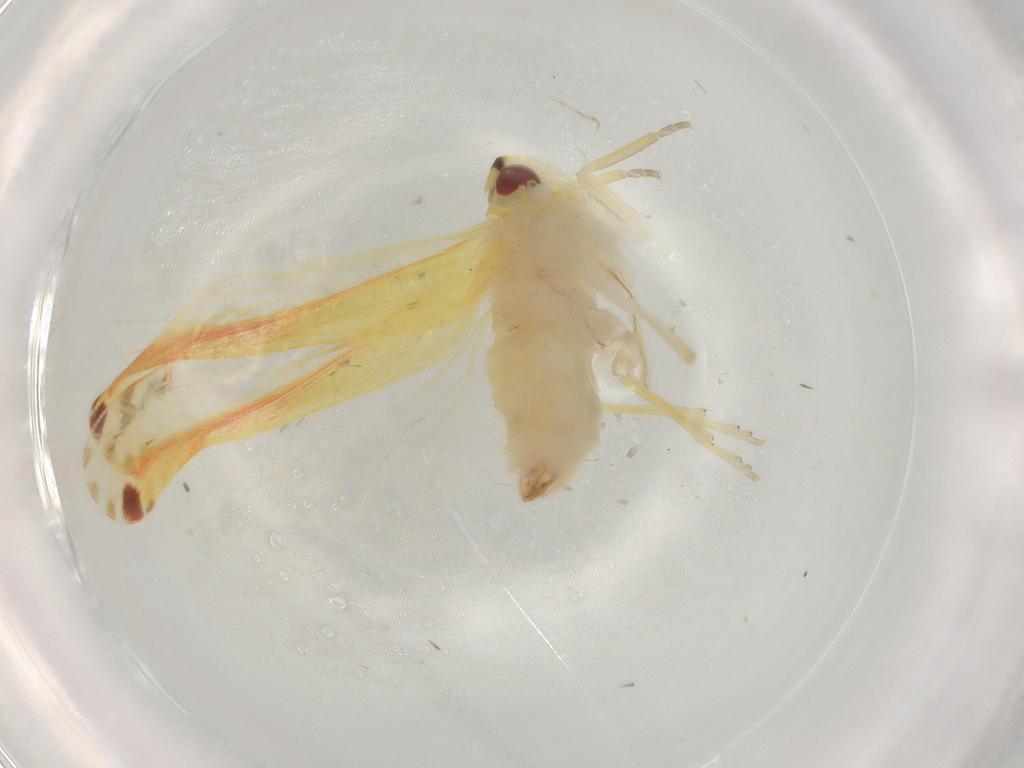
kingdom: Animalia
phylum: Arthropoda
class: Insecta
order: Hemiptera
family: Derbidae
